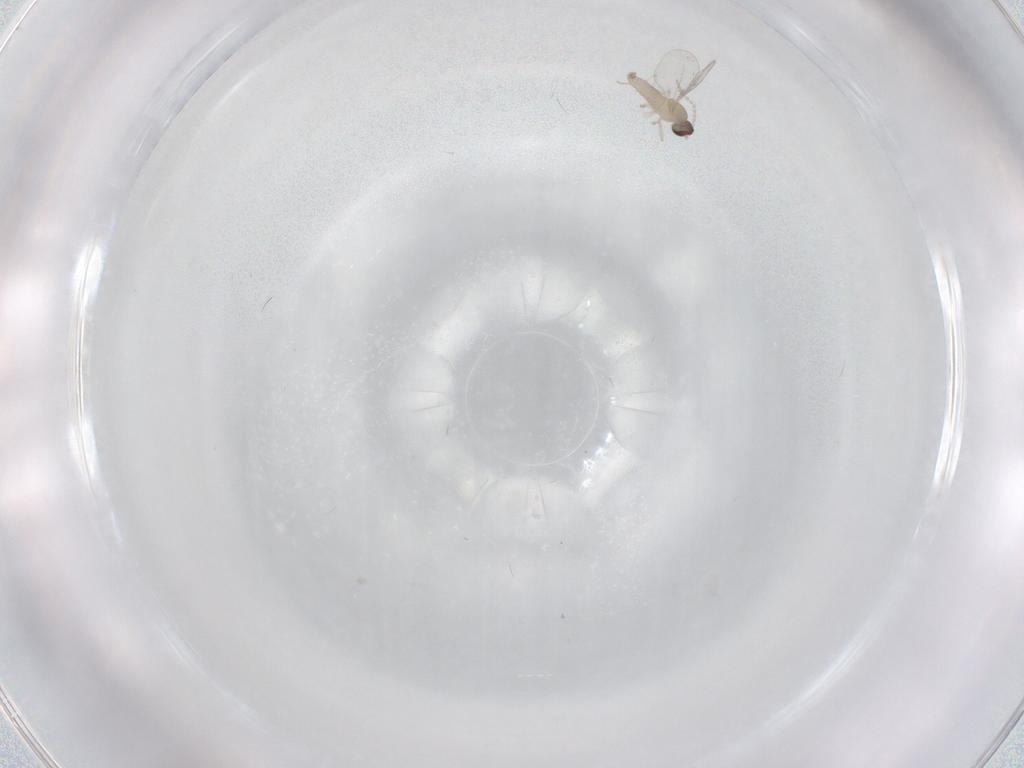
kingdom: Animalia
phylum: Arthropoda
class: Insecta
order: Diptera
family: Cecidomyiidae
